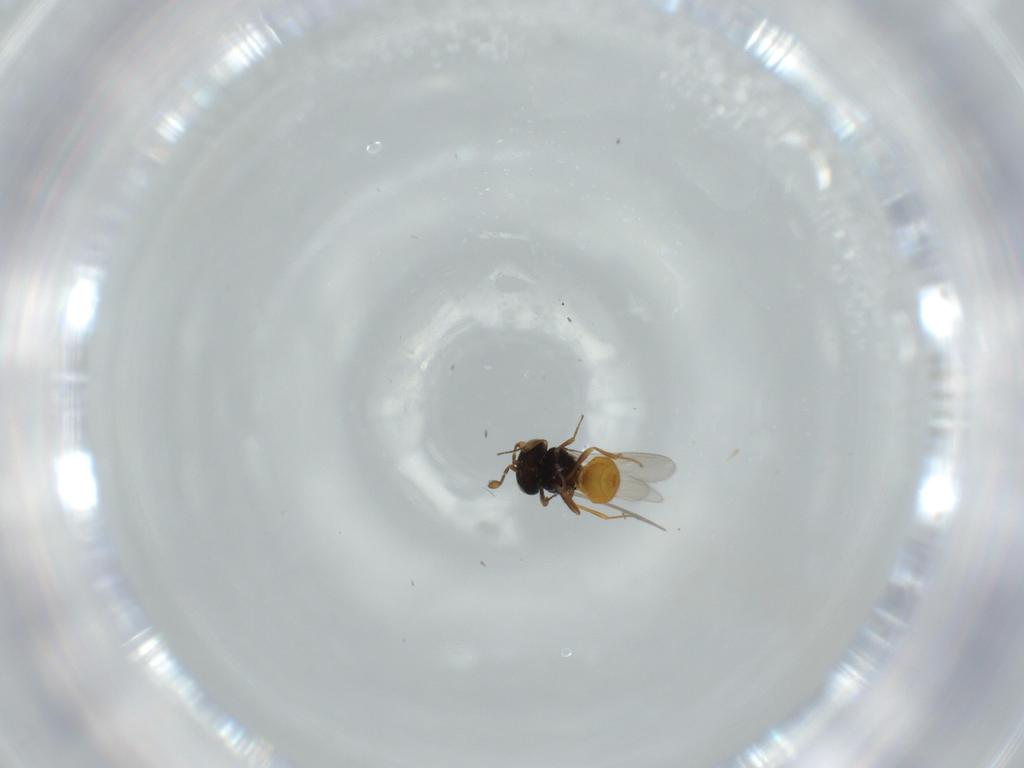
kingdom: Animalia
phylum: Arthropoda
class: Insecta
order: Hymenoptera
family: Scelionidae
